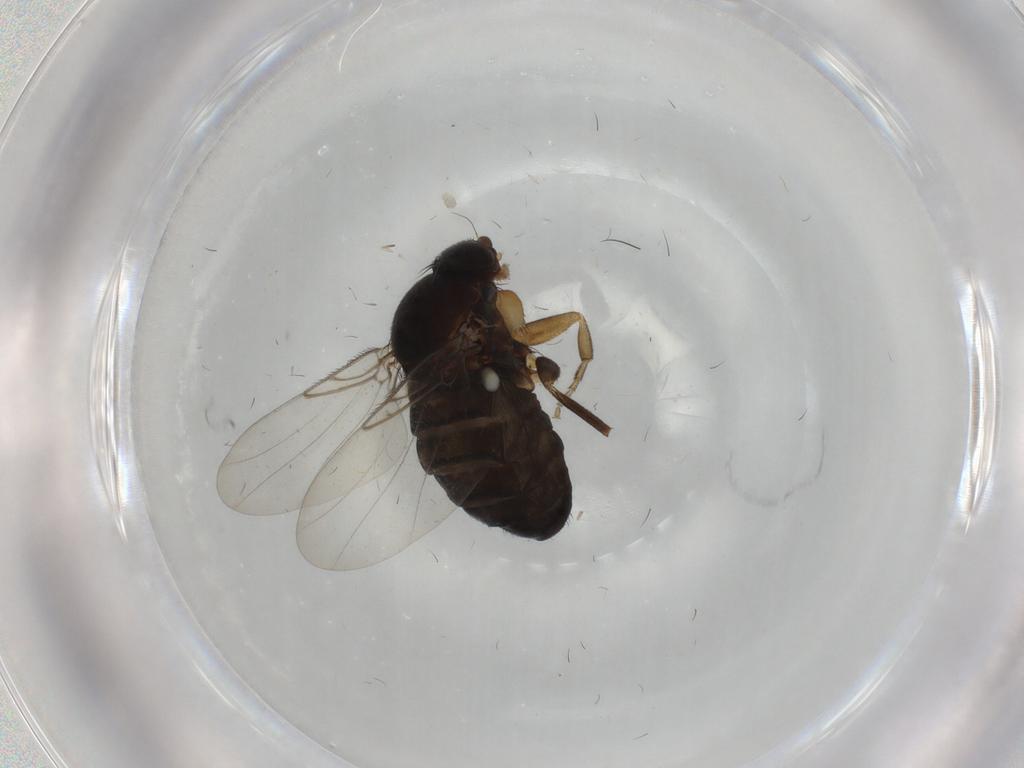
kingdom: Animalia
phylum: Arthropoda
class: Insecta
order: Diptera
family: Phoridae
